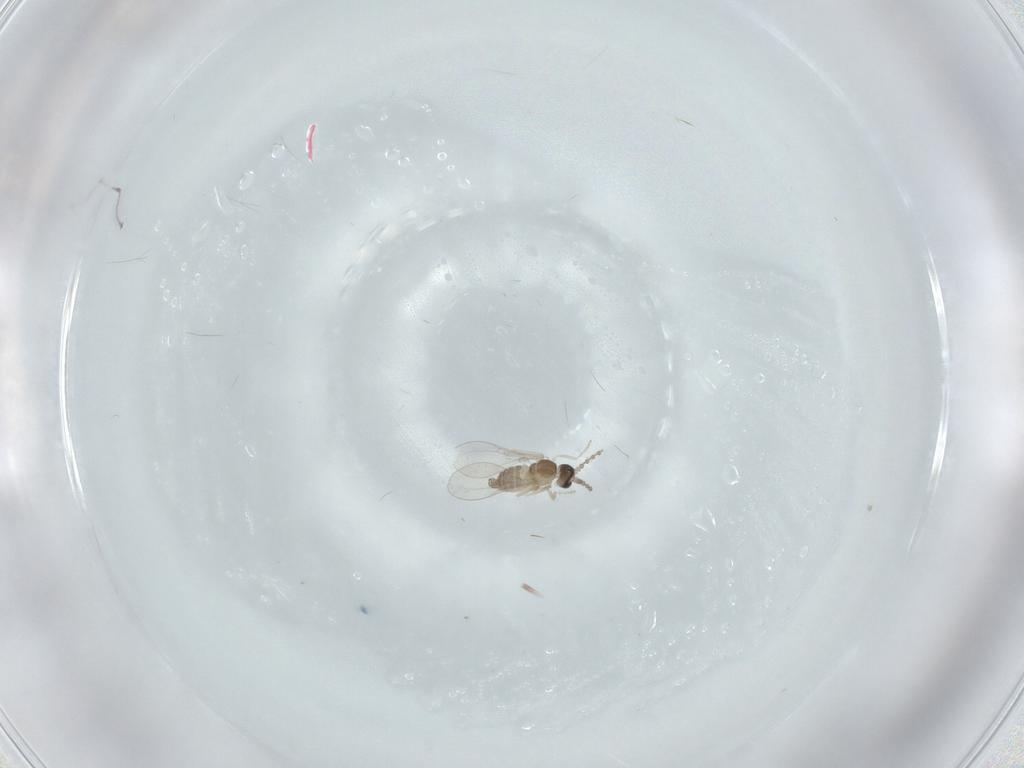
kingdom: Animalia
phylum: Arthropoda
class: Insecta
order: Diptera
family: Cecidomyiidae
